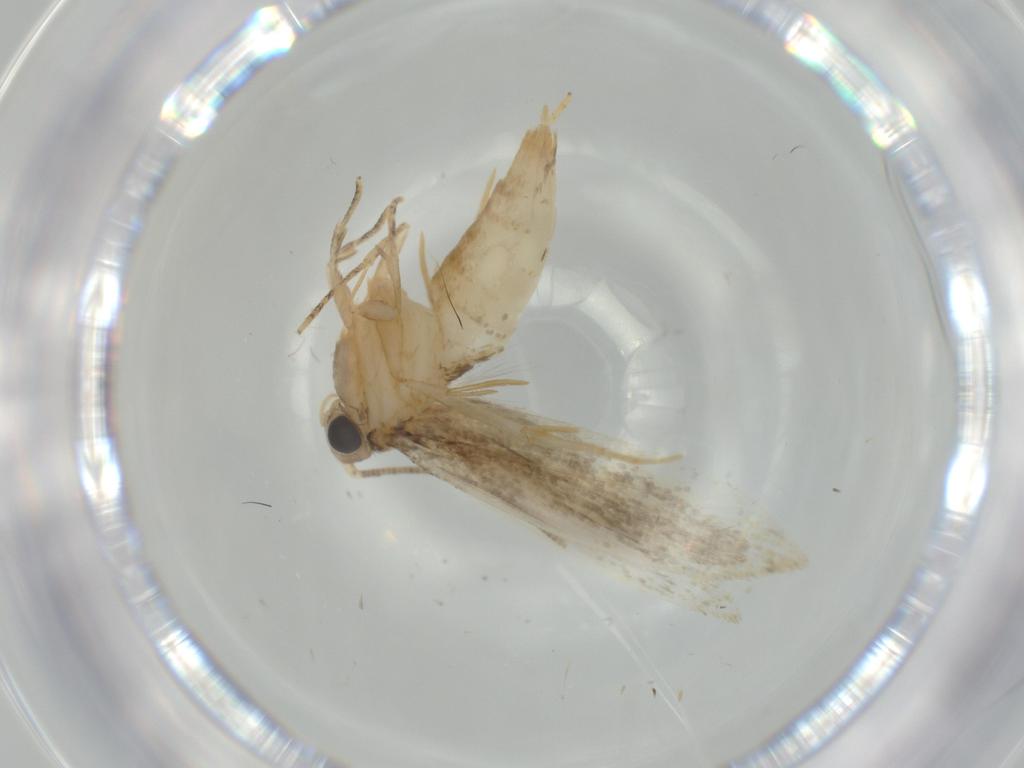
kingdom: Animalia
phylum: Arthropoda
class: Insecta
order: Lepidoptera
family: Tineidae
